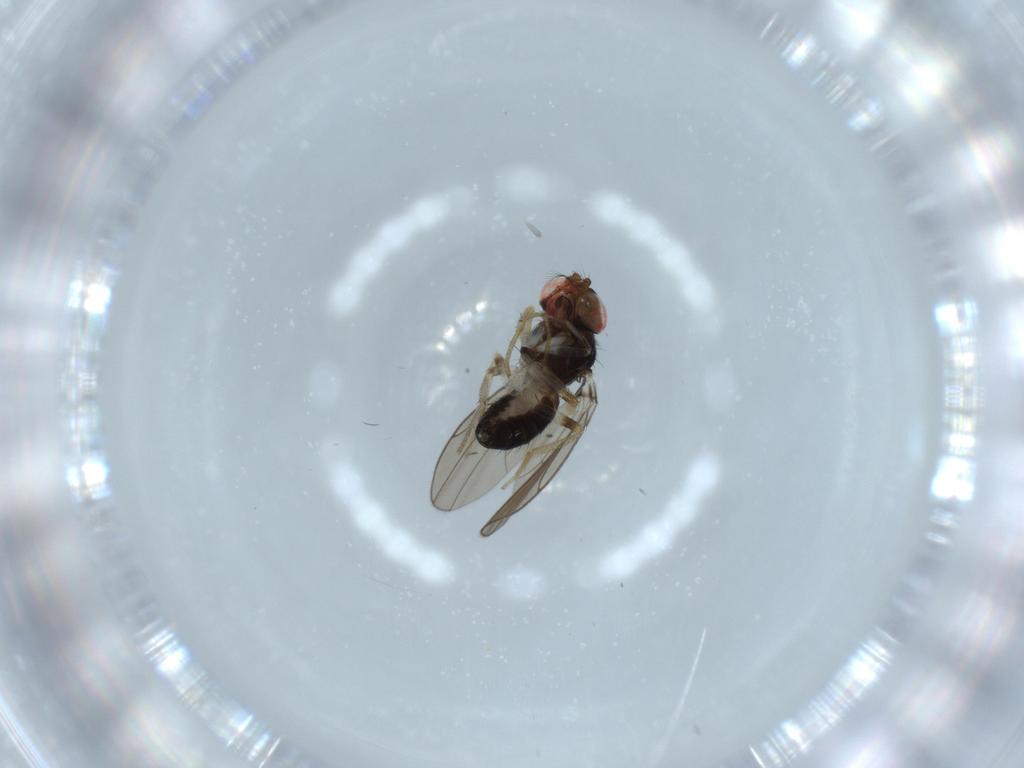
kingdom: Animalia
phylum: Arthropoda
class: Insecta
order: Diptera
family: Drosophilidae
